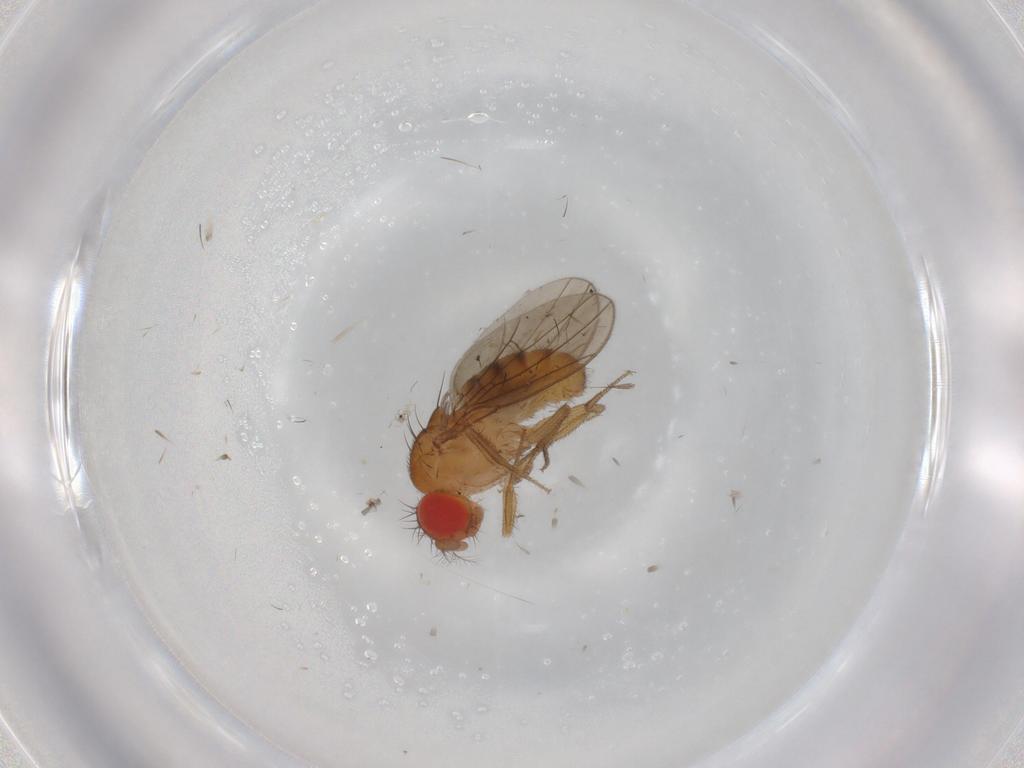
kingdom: Animalia
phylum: Arthropoda
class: Insecta
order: Diptera
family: Drosophilidae
